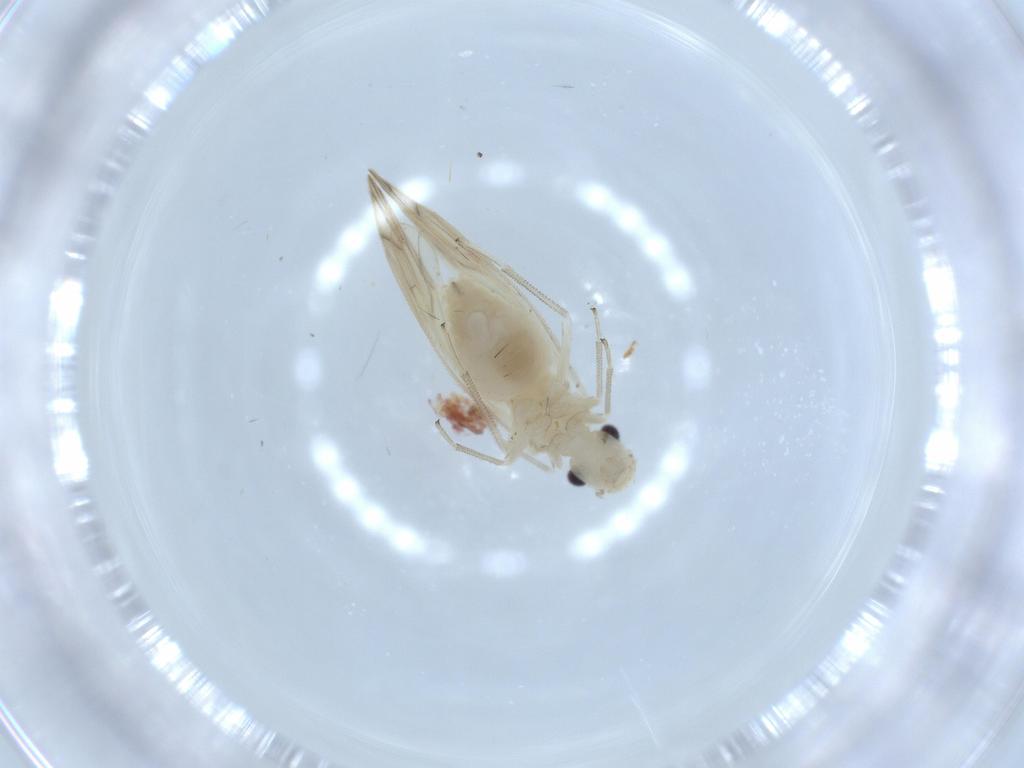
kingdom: Animalia
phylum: Arthropoda
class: Insecta
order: Psocodea
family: Caeciliusidae
